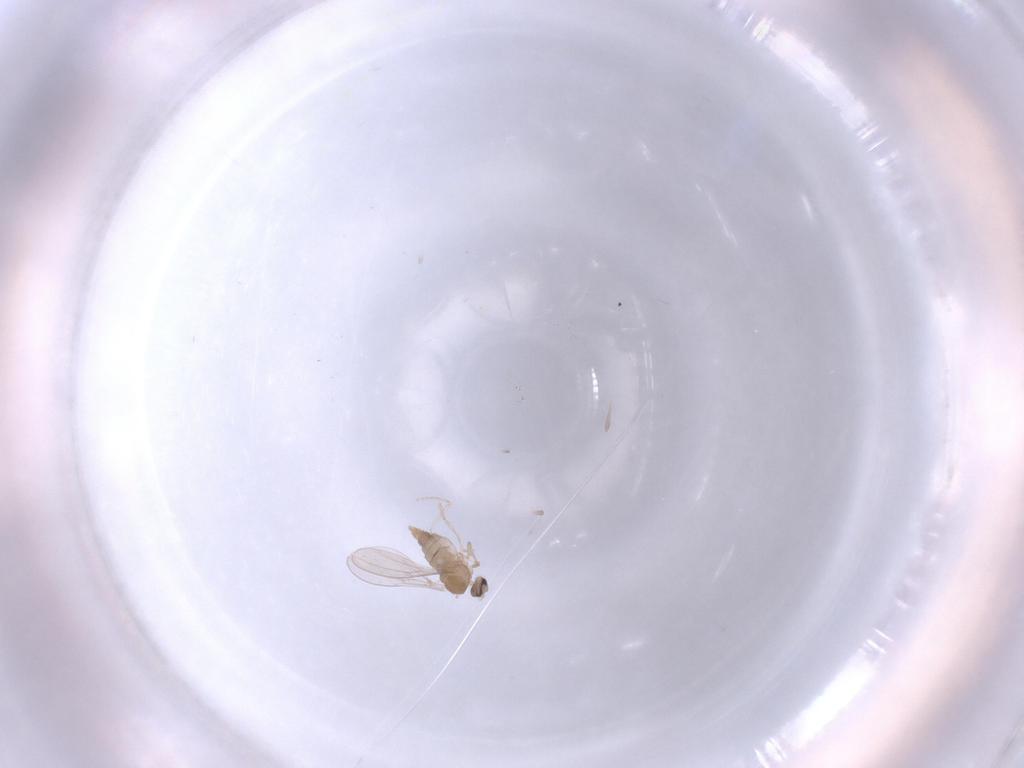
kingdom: Animalia
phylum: Arthropoda
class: Insecta
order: Diptera
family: Cecidomyiidae
